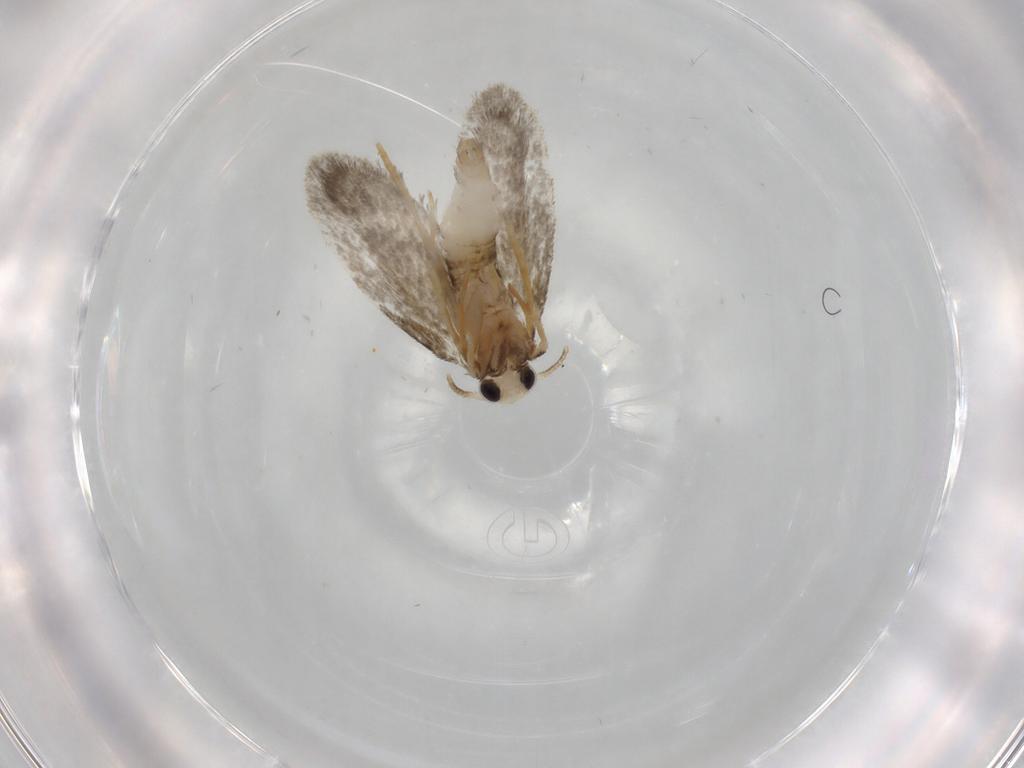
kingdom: Animalia
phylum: Arthropoda
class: Insecta
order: Lepidoptera
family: Psychidae
